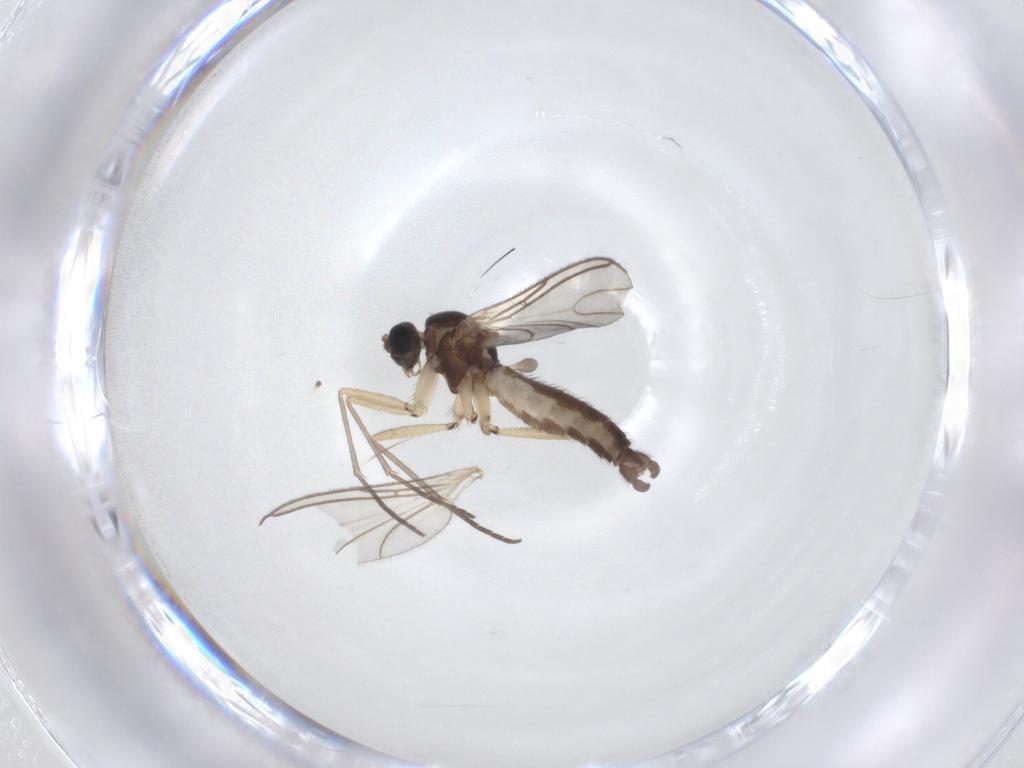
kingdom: Animalia
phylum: Arthropoda
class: Insecta
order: Diptera
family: Sciaridae
